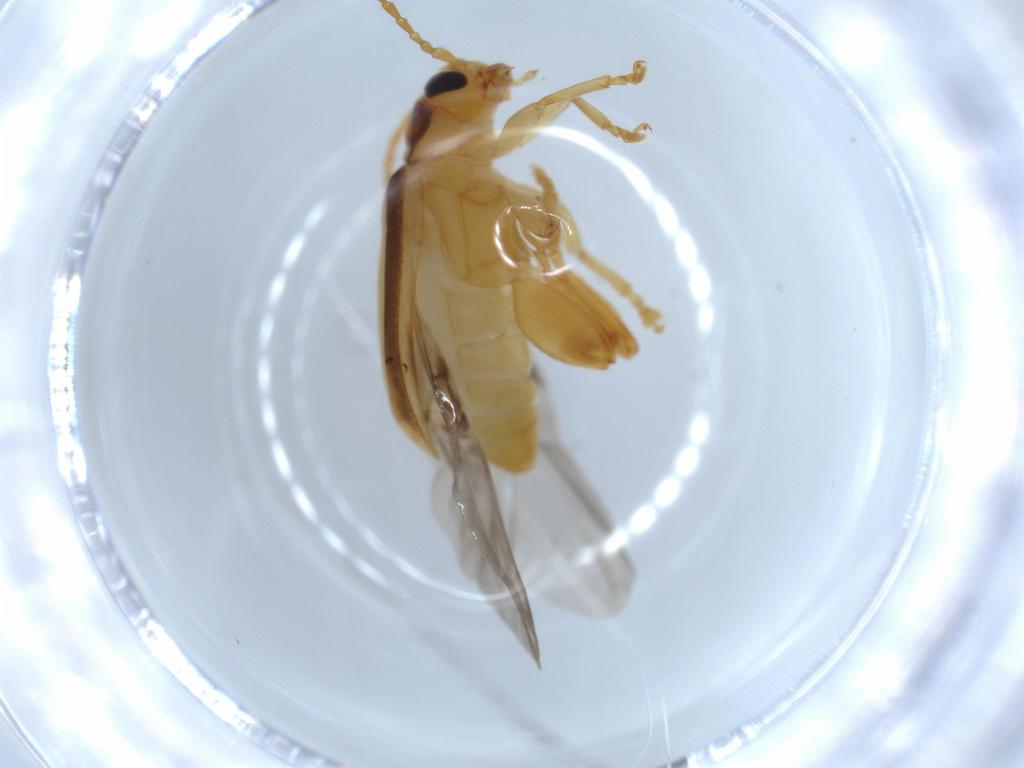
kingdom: Animalia
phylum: Arthropoda
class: Insecta
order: Coleoptera
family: Chrysomelidae
